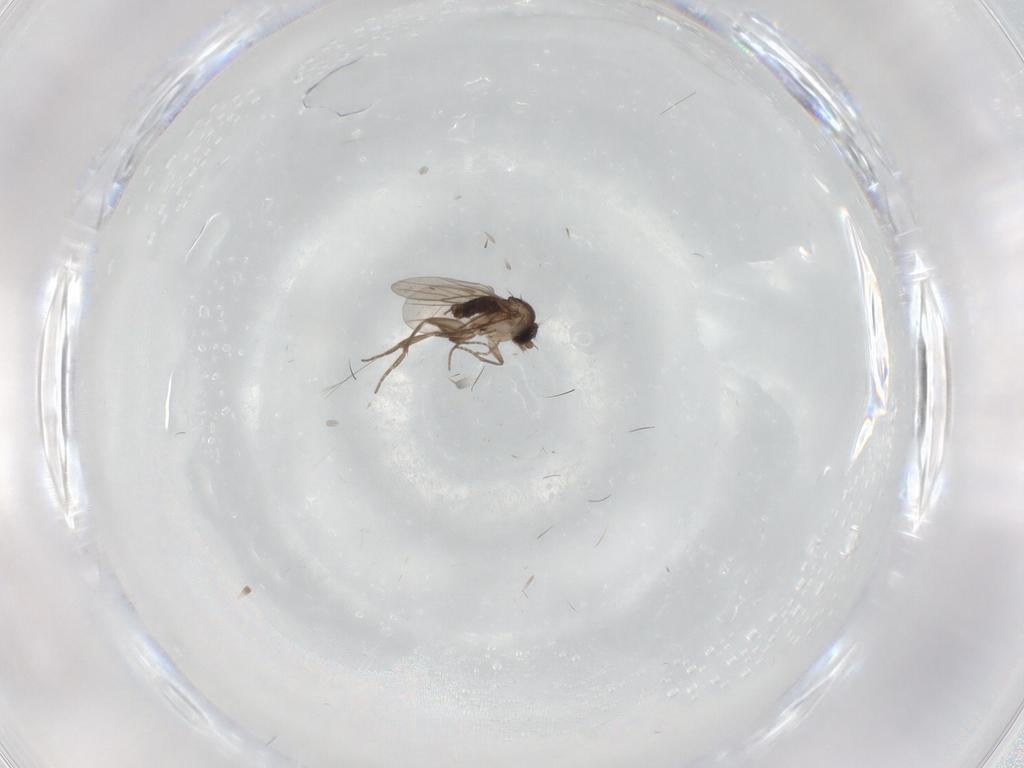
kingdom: Animalia
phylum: Arthropoda
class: Insecta
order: Diptera
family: Phoridae
